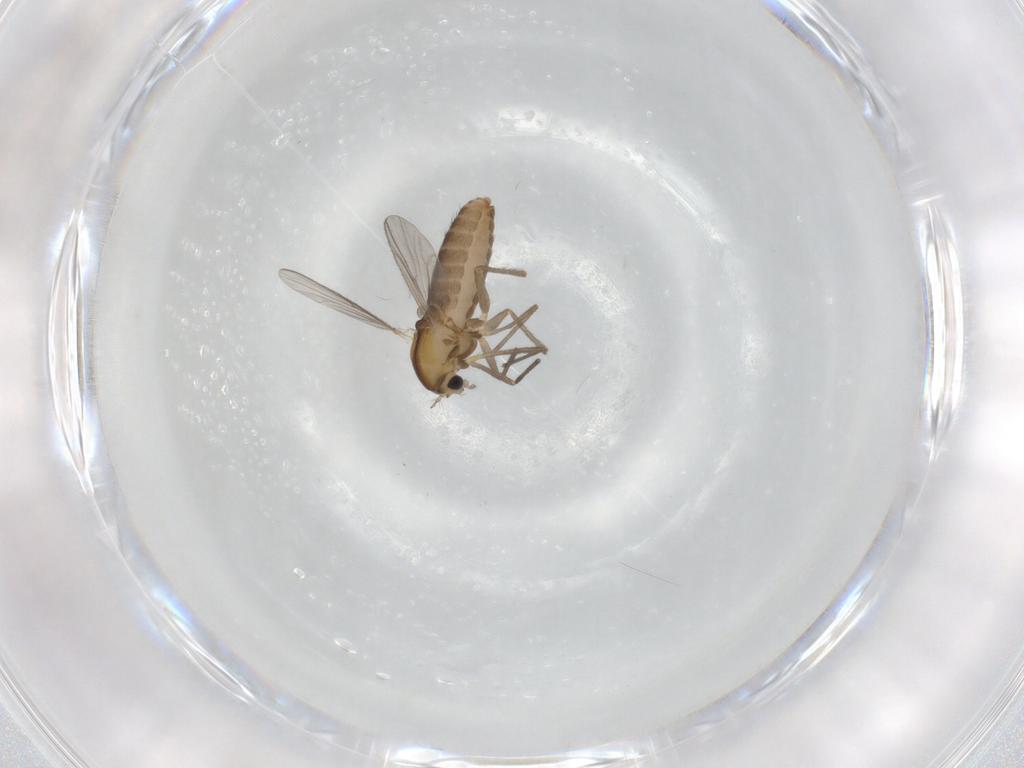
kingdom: Animalia
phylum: Arthropoda
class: Insecta
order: Diptera
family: Chironomidae
